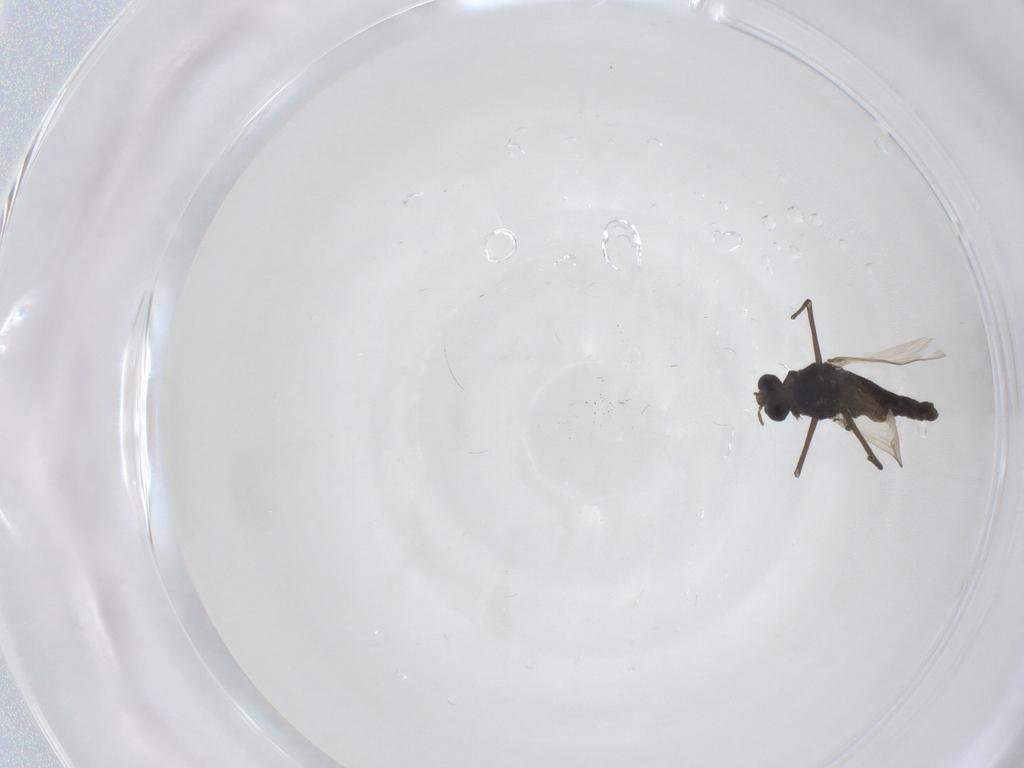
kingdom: Animalia
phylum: Arthropoda
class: Insecta
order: Diptera
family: Chironomidae
